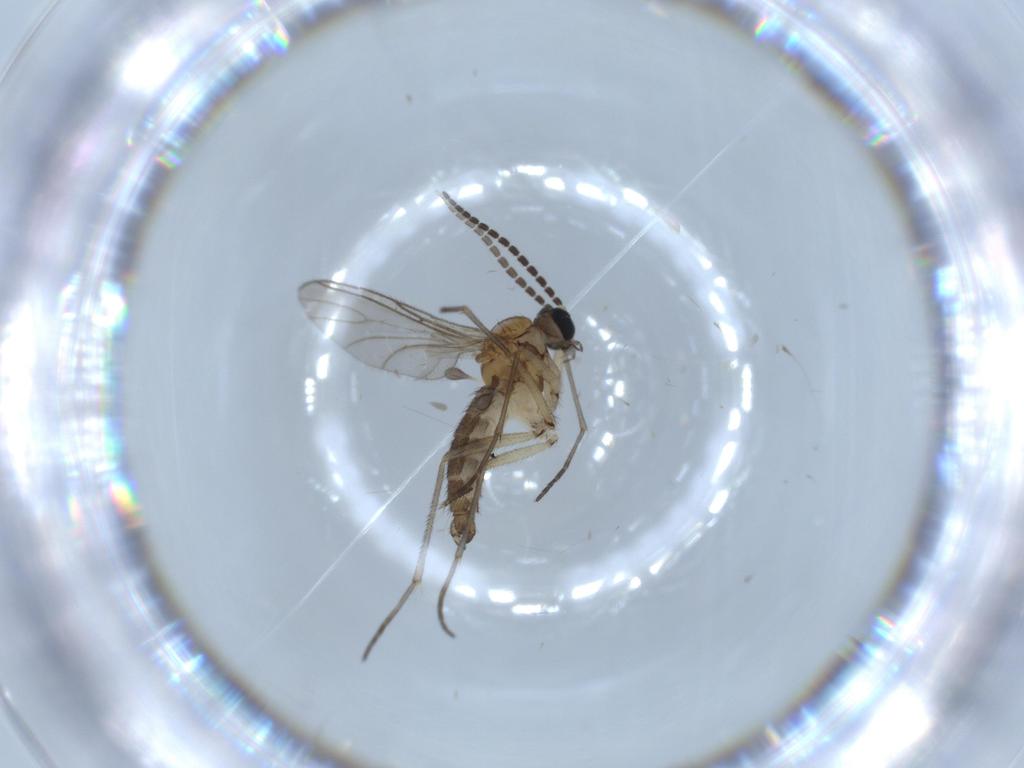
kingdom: Animalia
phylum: Arthropoda
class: Insecta
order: Diptera
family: Sciaridae
